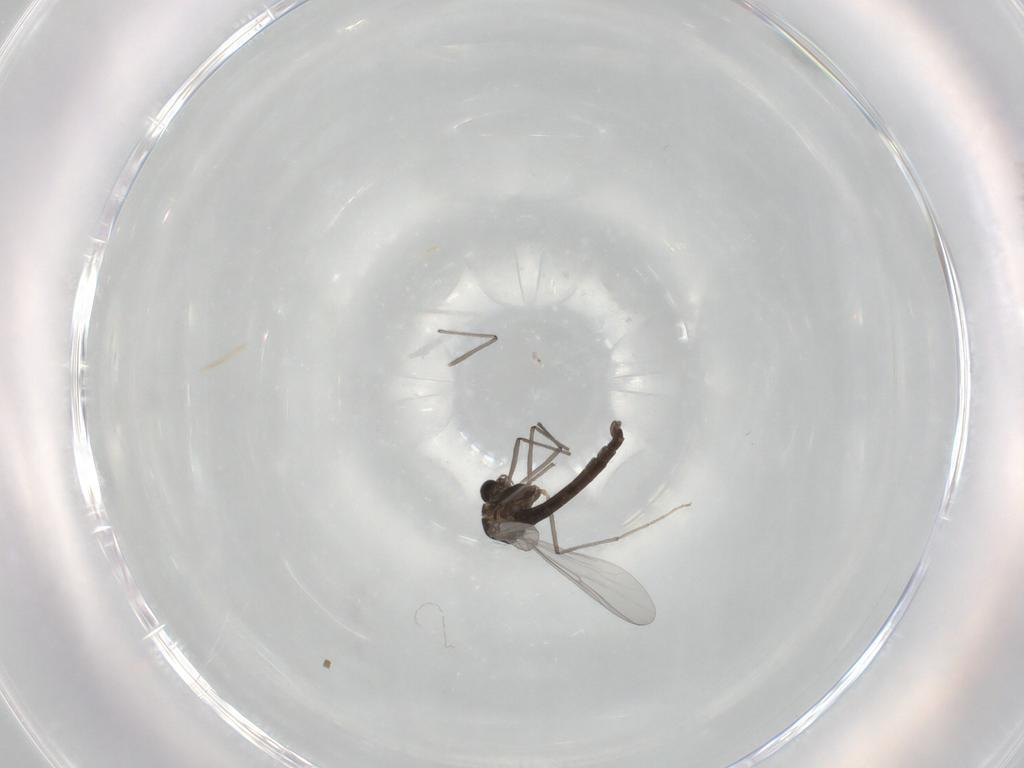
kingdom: Animalia
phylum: Arthropoda
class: Insecta
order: Diptera
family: Chironomidae
